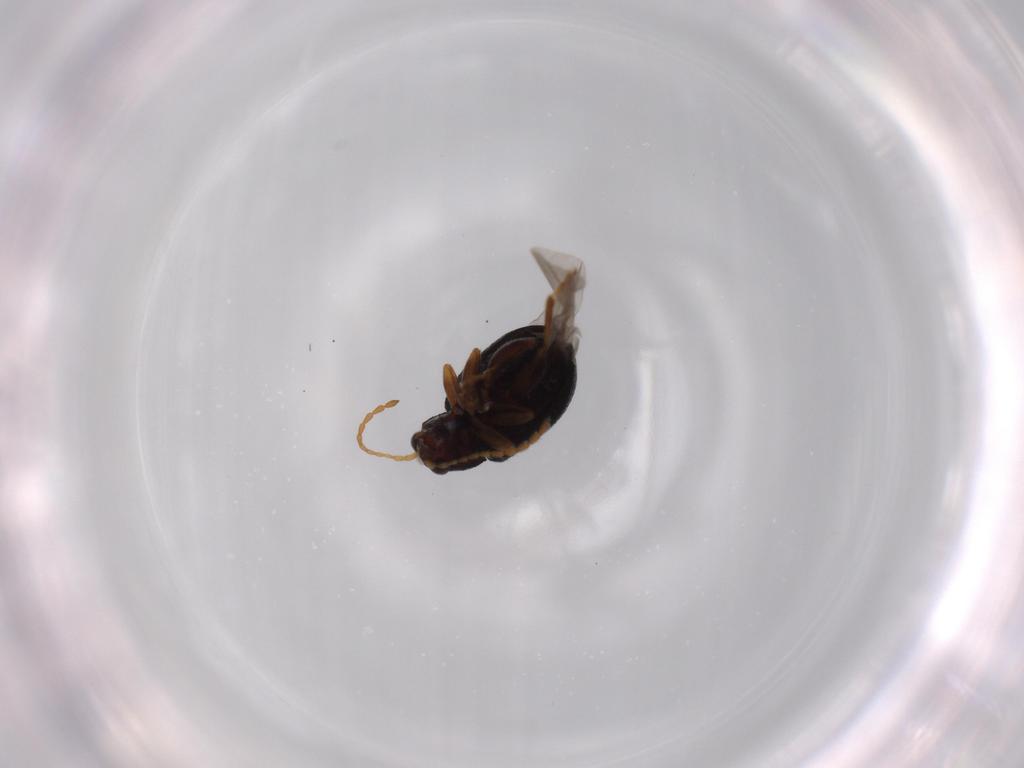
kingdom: Animalia
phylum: Arthropoda
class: Insecta
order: Coleoptera
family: Chrysomelidae
